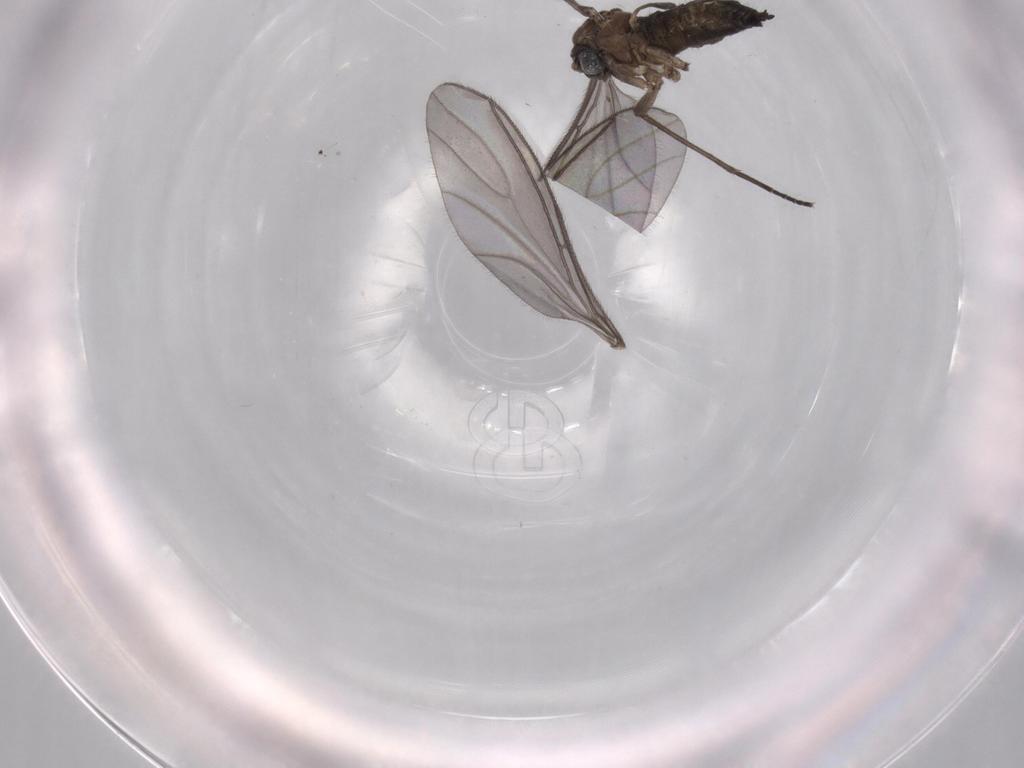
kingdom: Animalia
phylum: Arthropoda
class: Insecta
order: Diptera
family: Sciaridae
